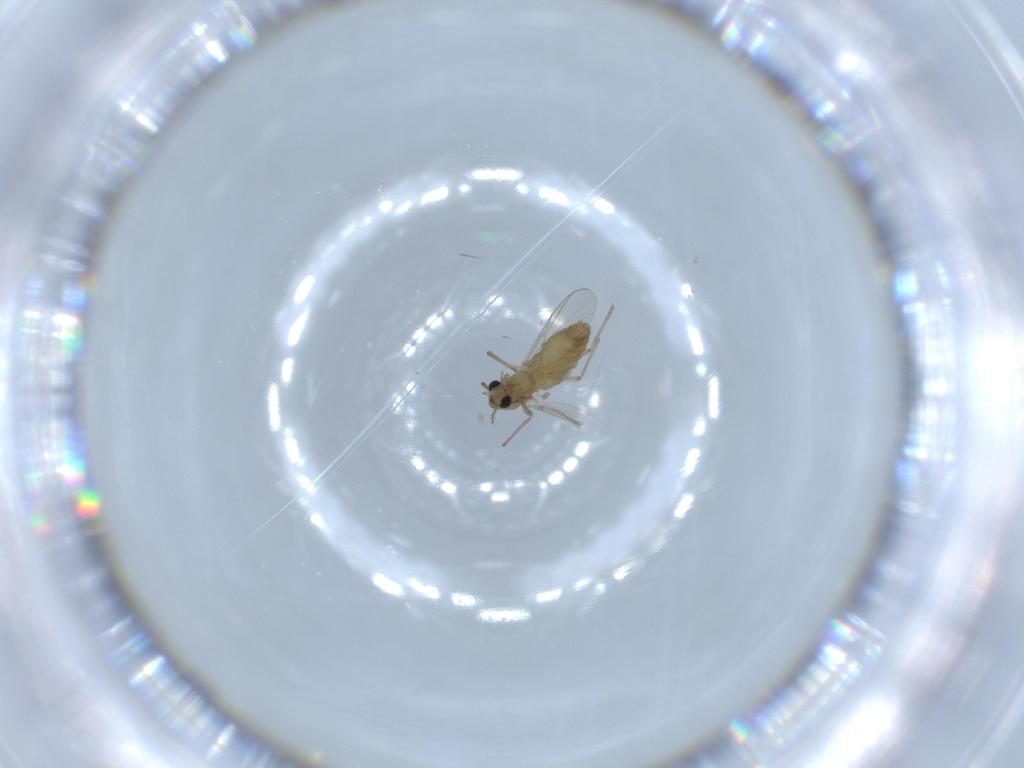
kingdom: Animalia
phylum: Arthropoda
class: Insecta
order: Diptera
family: Chironomidae
